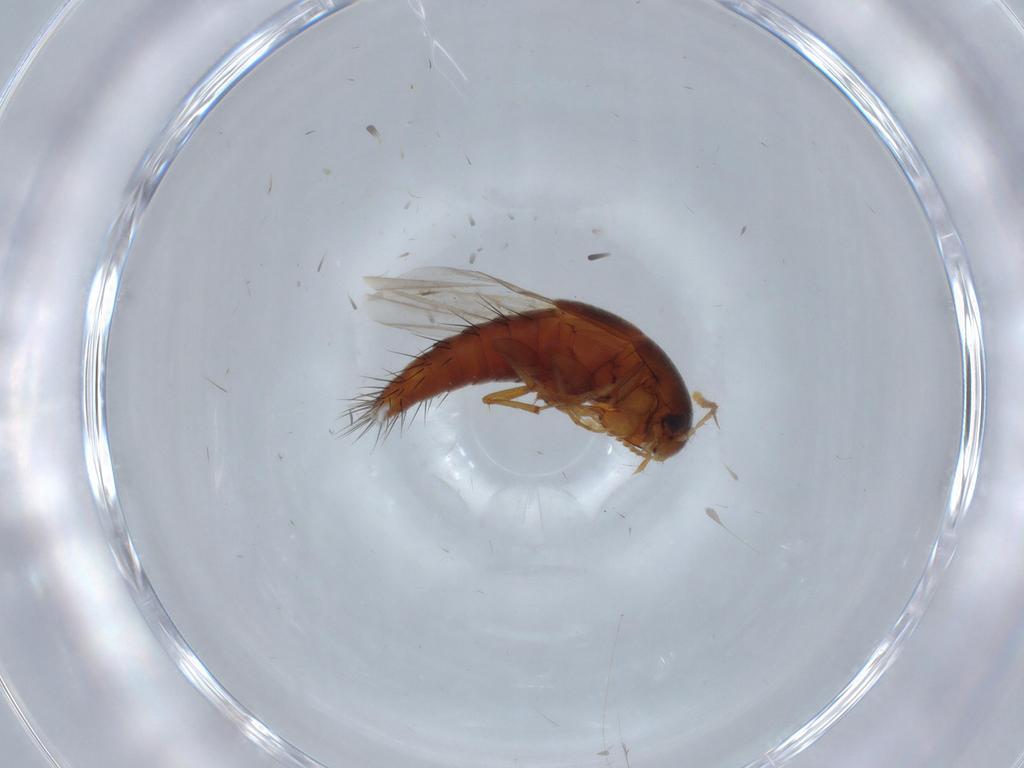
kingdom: Animalia
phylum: Arthropoda
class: Insecta
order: Coleoptera
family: Staphylinidae
